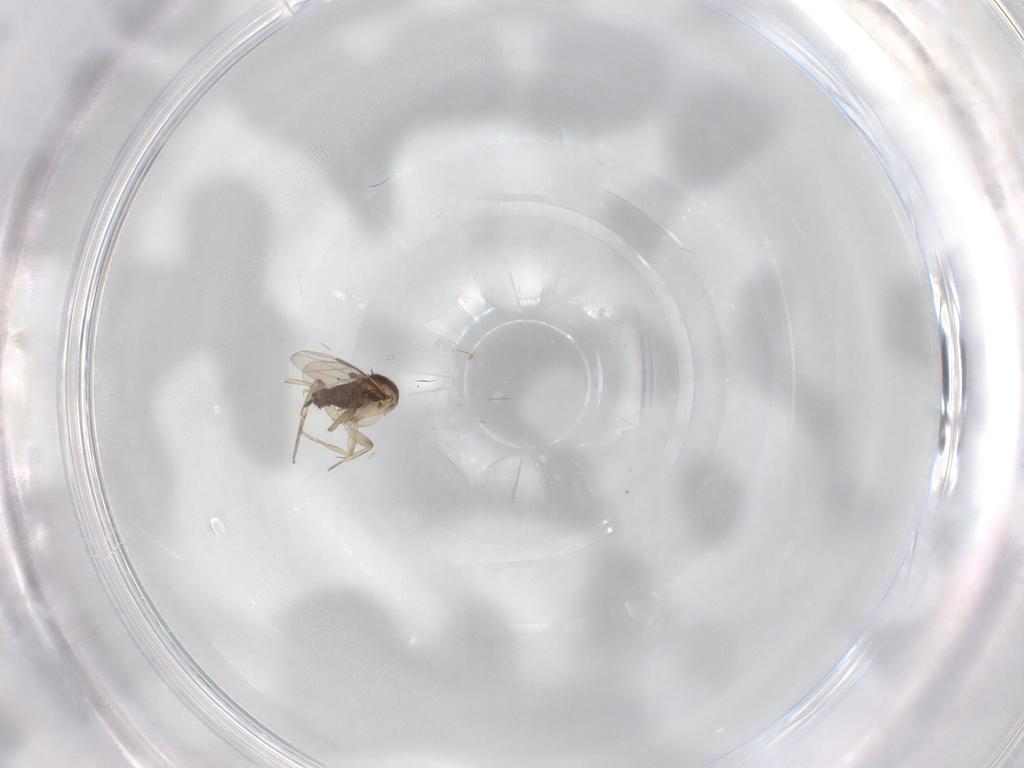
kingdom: Animalia
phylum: Arthropoda
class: Insecta
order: Diptera
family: Phoridae
